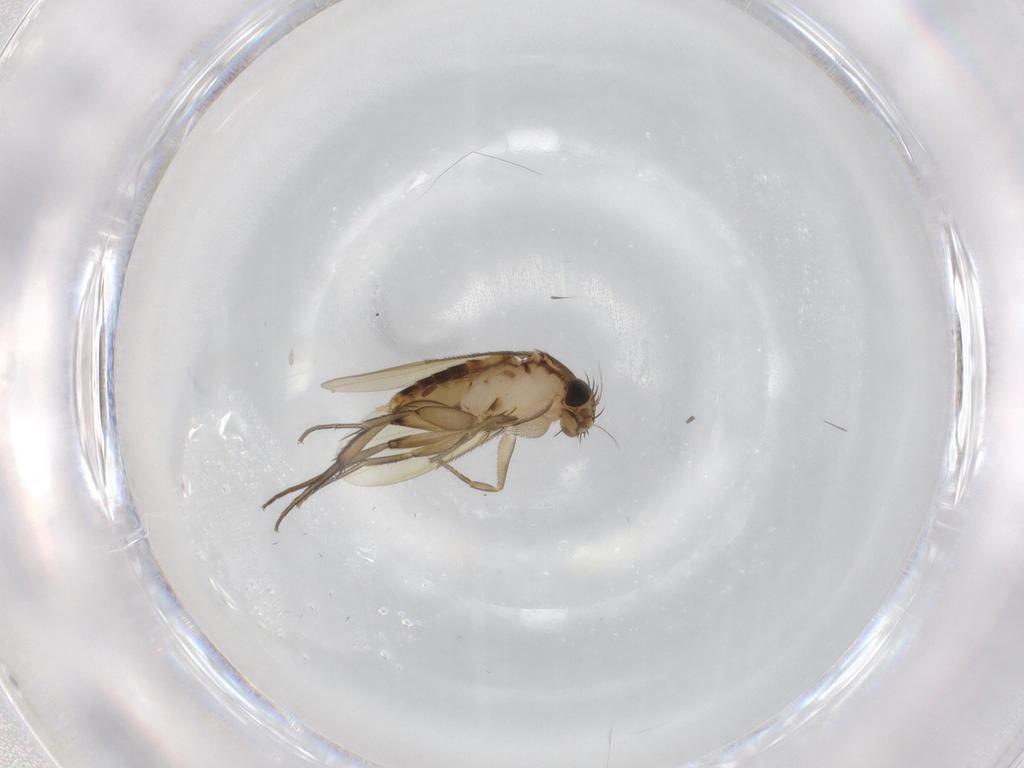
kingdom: Animalia
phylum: Arthropoda
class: Insecta
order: Diptera
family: Phoridae
